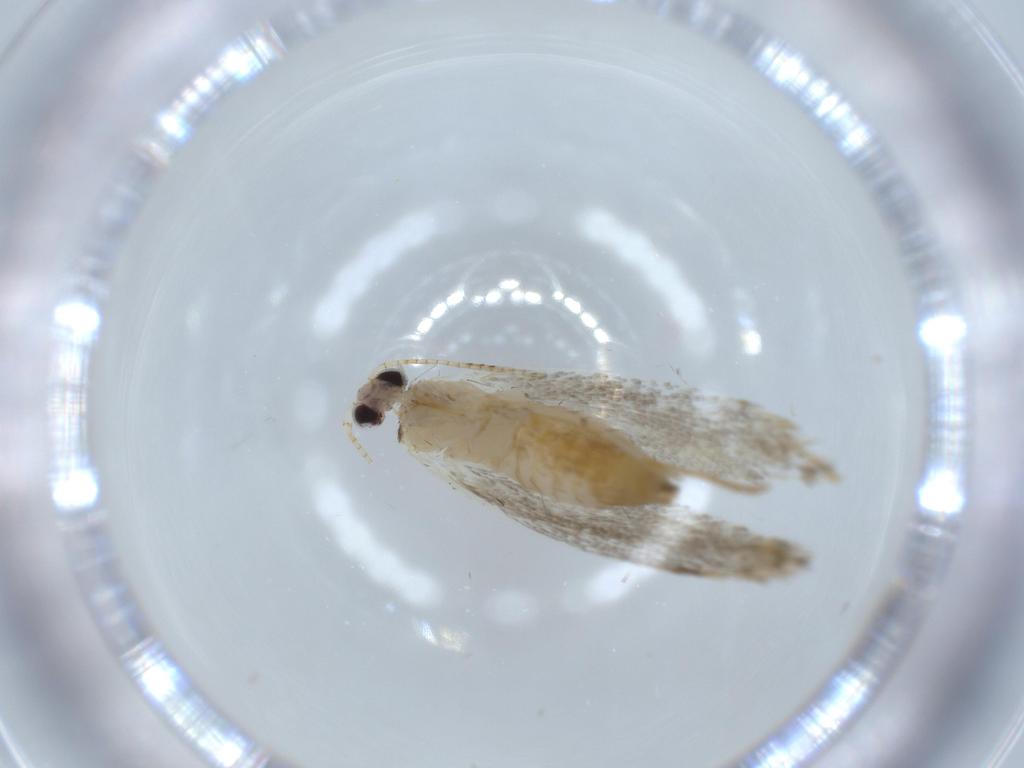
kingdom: Animalia
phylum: Arthropoda
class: Insecta
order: Lepidoptera
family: Tineidae
